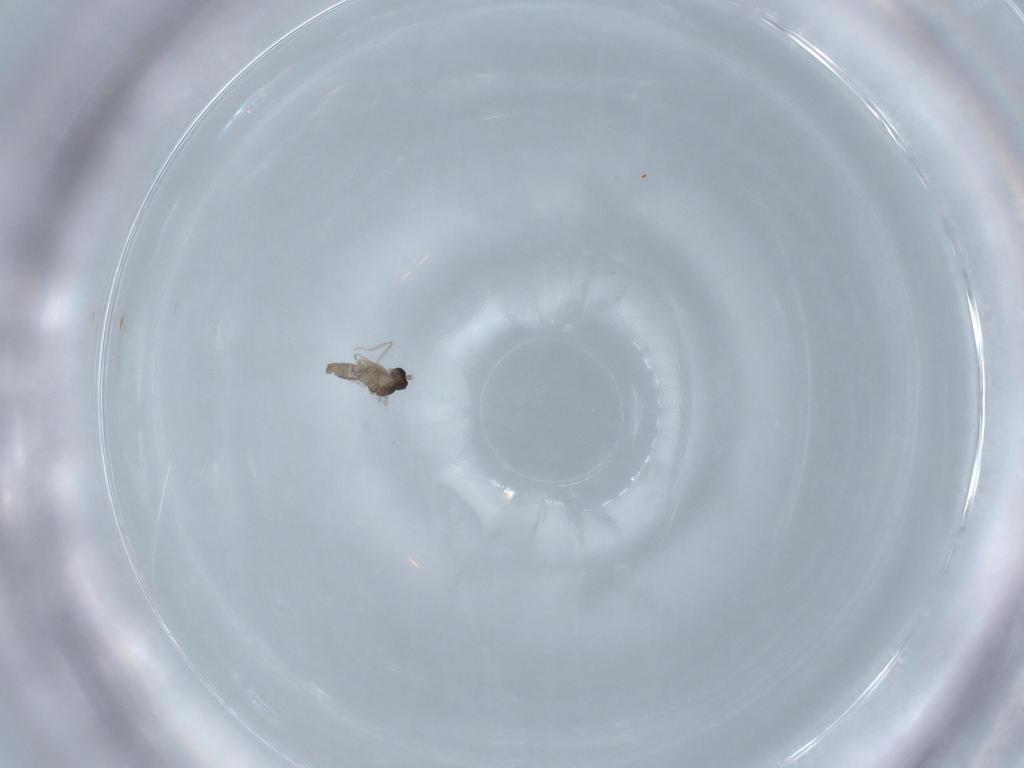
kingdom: Animalia
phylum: Arthropoda
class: Insecta
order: Diptera
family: Cecidomyiidae
